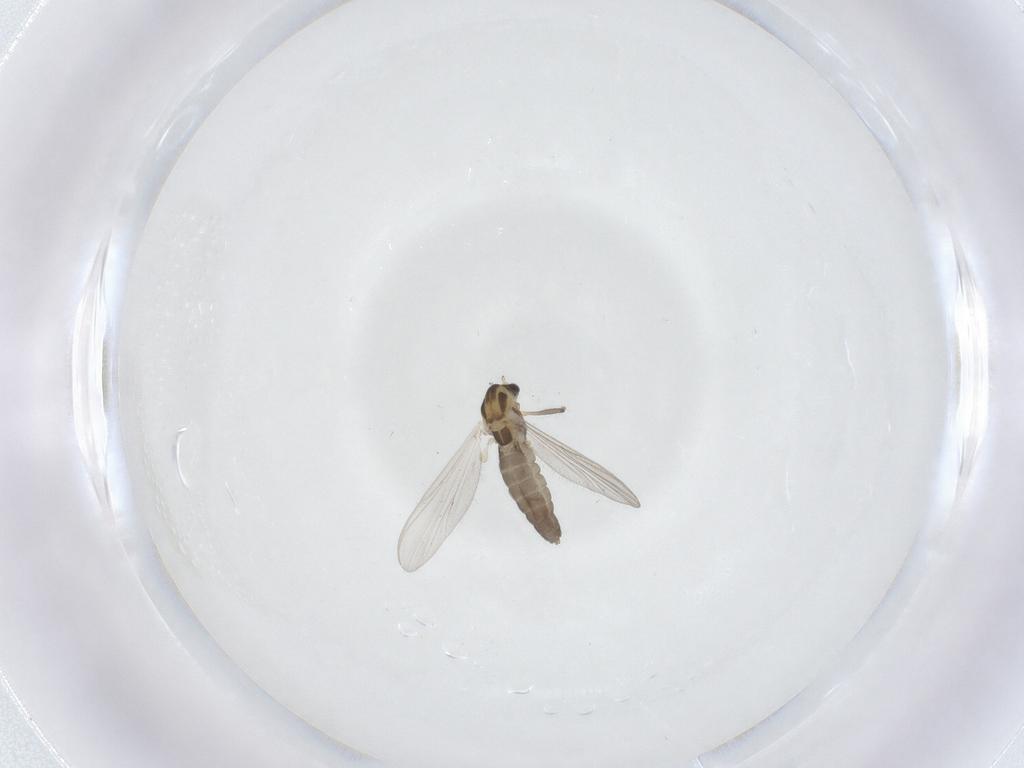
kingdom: Animalia
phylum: Arthropoda
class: Insecta
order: Diptera
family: Chironomidae
